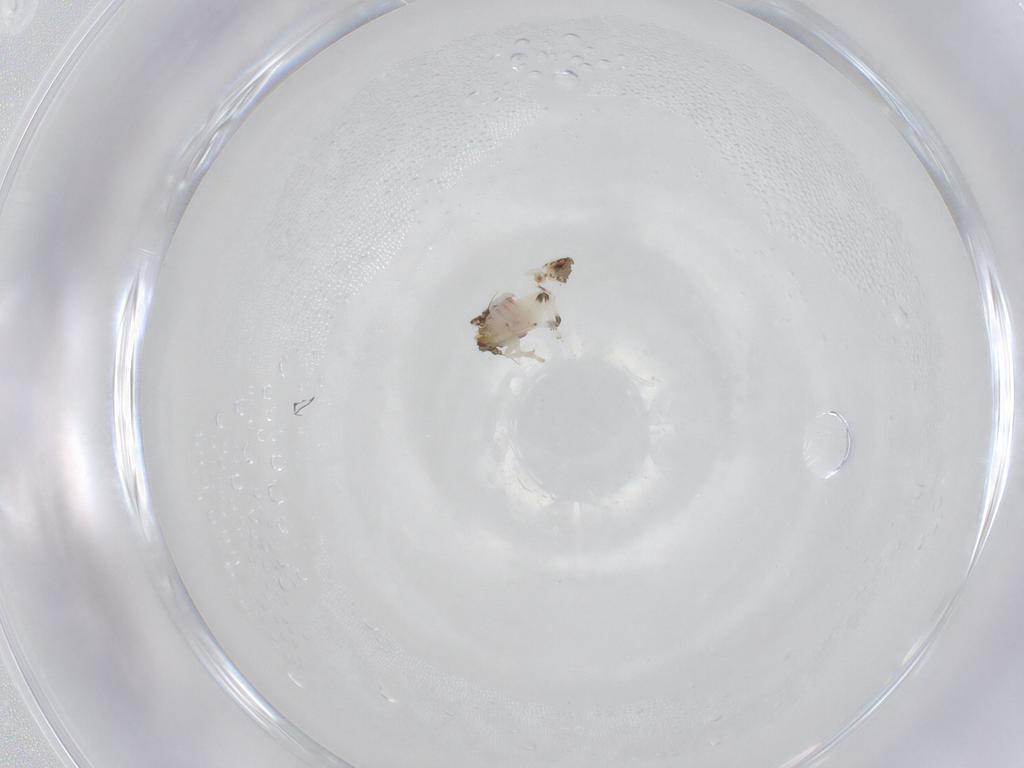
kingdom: Animalia
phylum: Arthropoda
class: Insecta
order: Hemiptera
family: Nogodinidae
